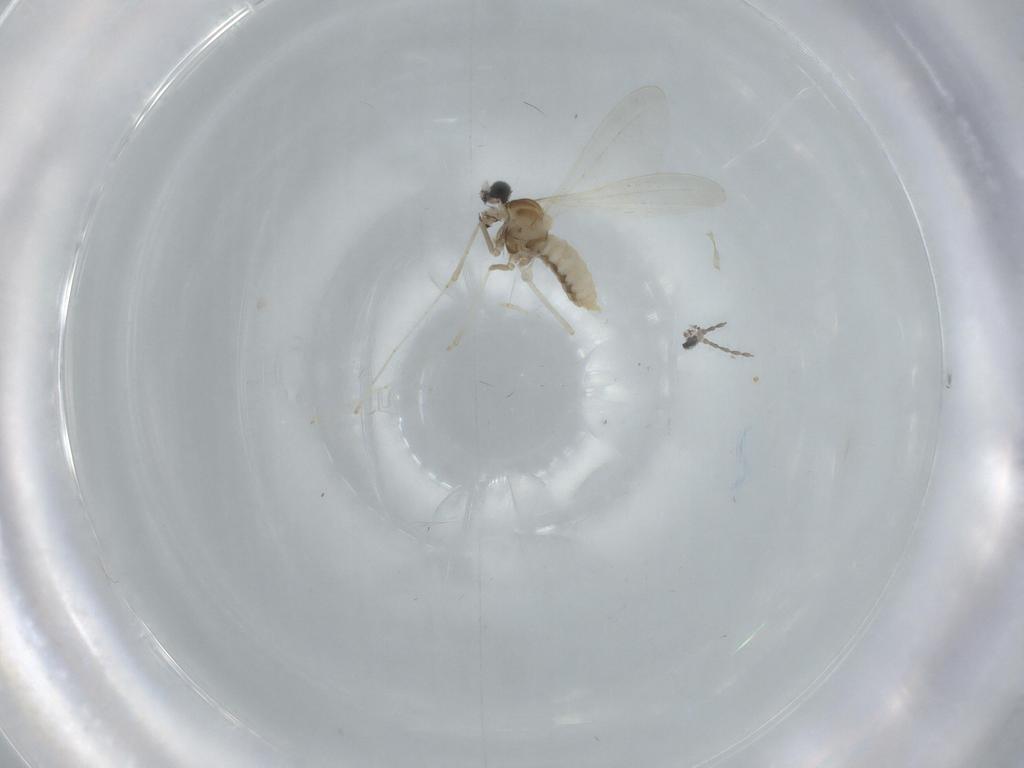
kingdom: Animalia
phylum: Arthropoda
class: Insecta
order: Diptera
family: Cecidomyiidae
